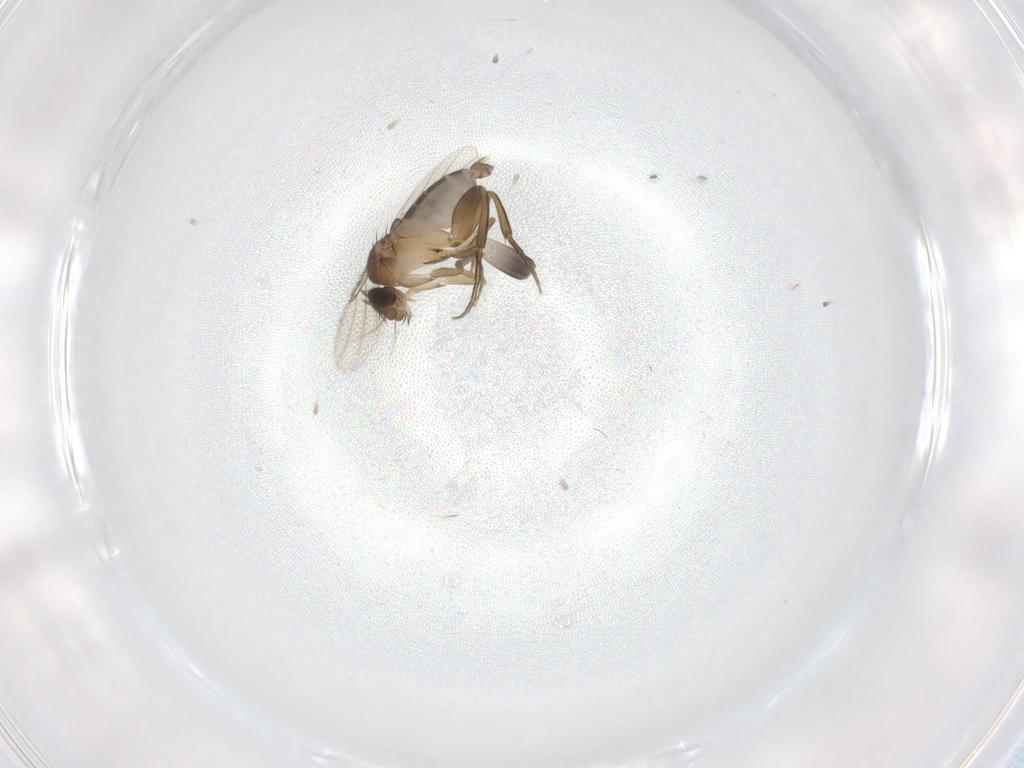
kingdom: Animalia
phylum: Arthropoda
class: Insecta
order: Diptera
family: Phoridae
